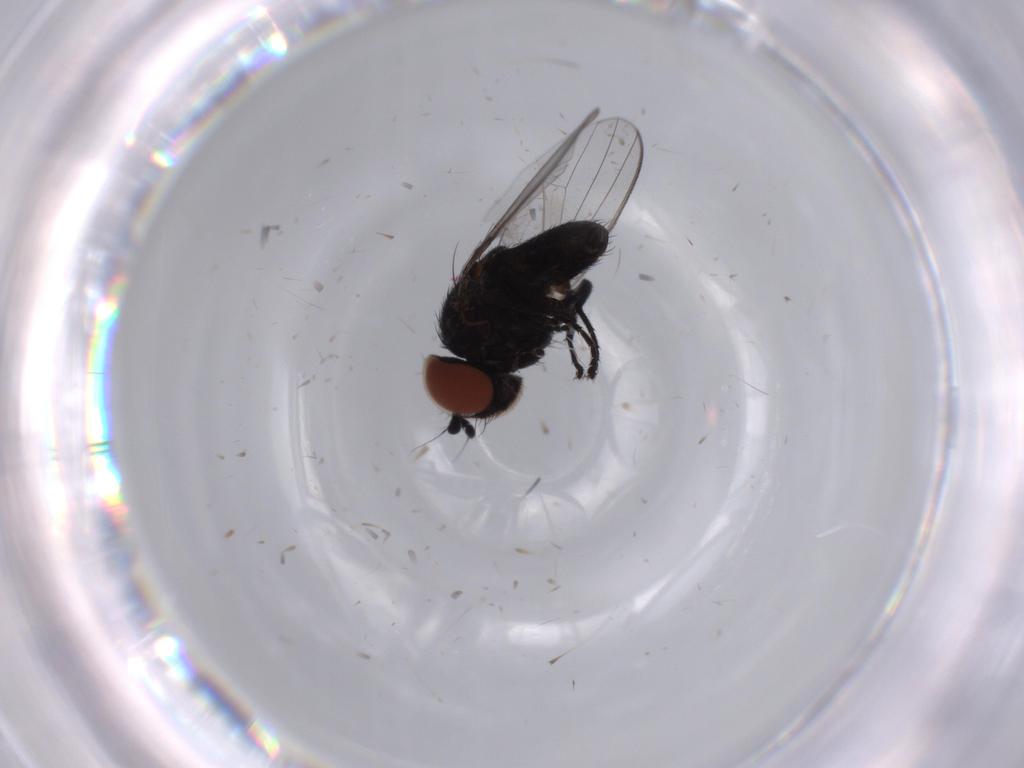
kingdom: Animalia
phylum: Arthropoda
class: Insecta
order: Diptera
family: Milichiidae
